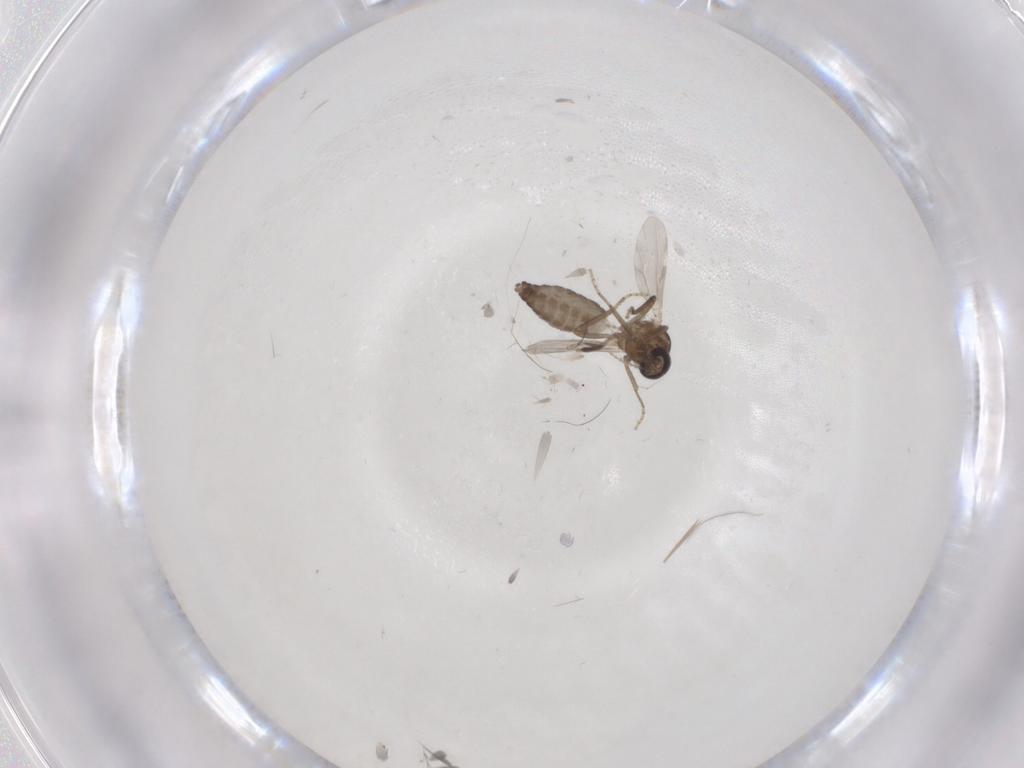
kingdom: Animalia
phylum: Arthropoda
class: Insecta
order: Diptera
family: Ceratopogonidae
